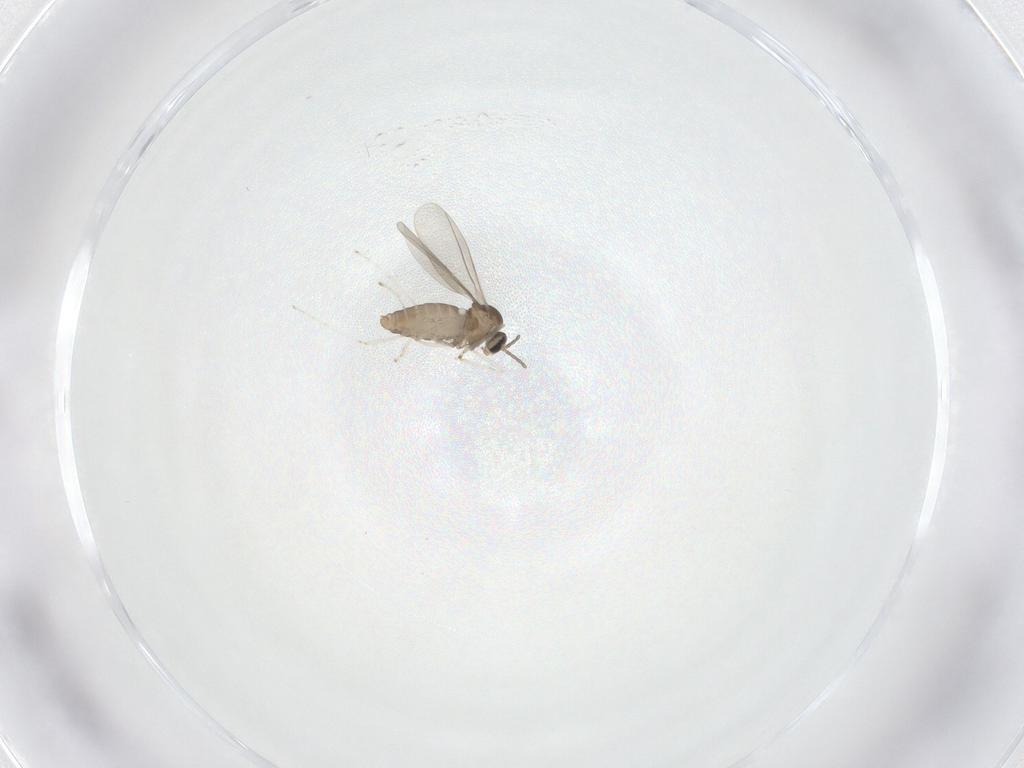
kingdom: Animalia
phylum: Arthropoda
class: Insecta
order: Diptera
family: Cecidomyiidae
